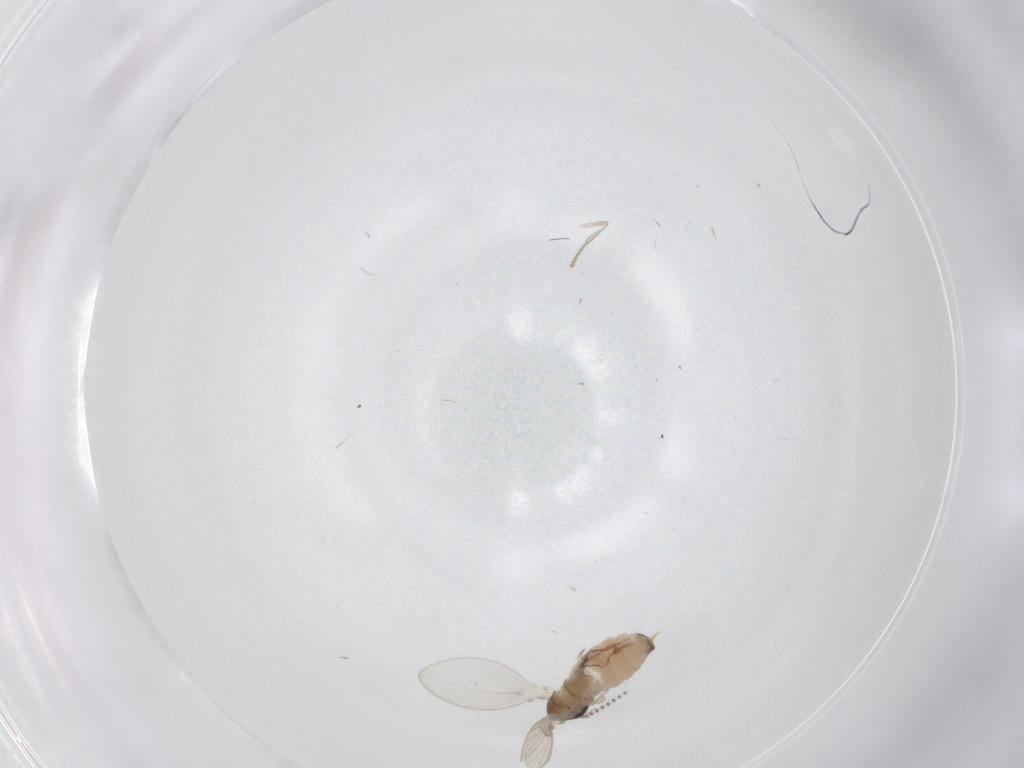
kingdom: Animalia
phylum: Arthropoda
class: Insecta
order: Diptera
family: Psychodidae
